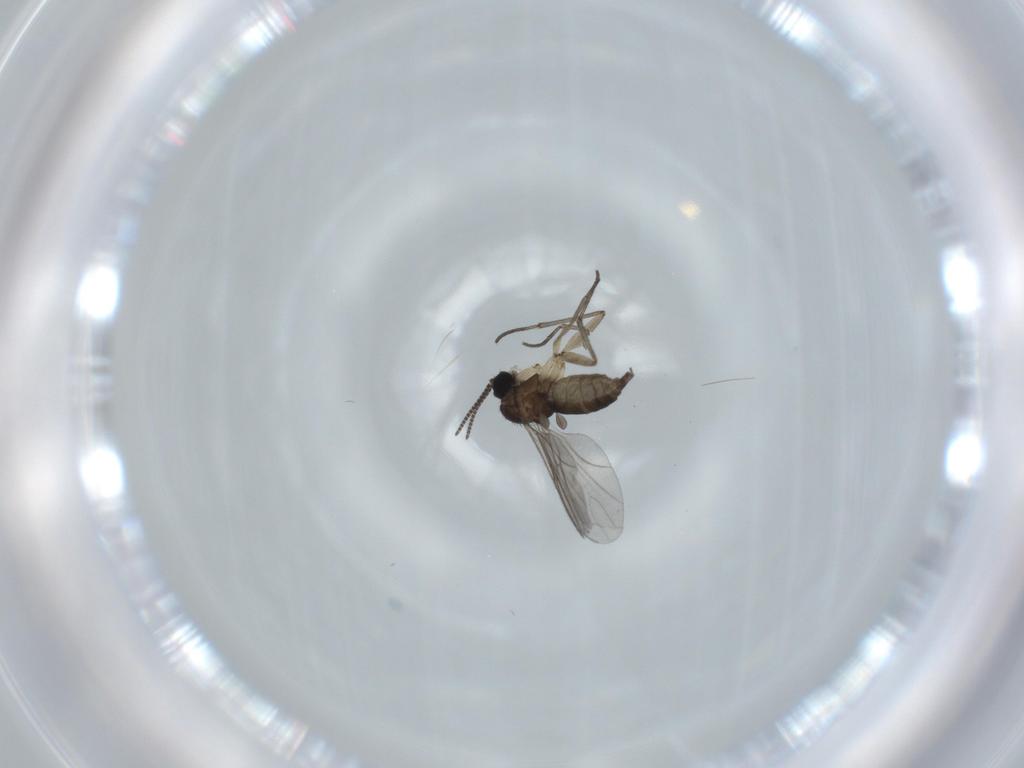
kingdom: Animalia
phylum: Arthropoda
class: Insecta
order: Diptera
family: Sciaridae
